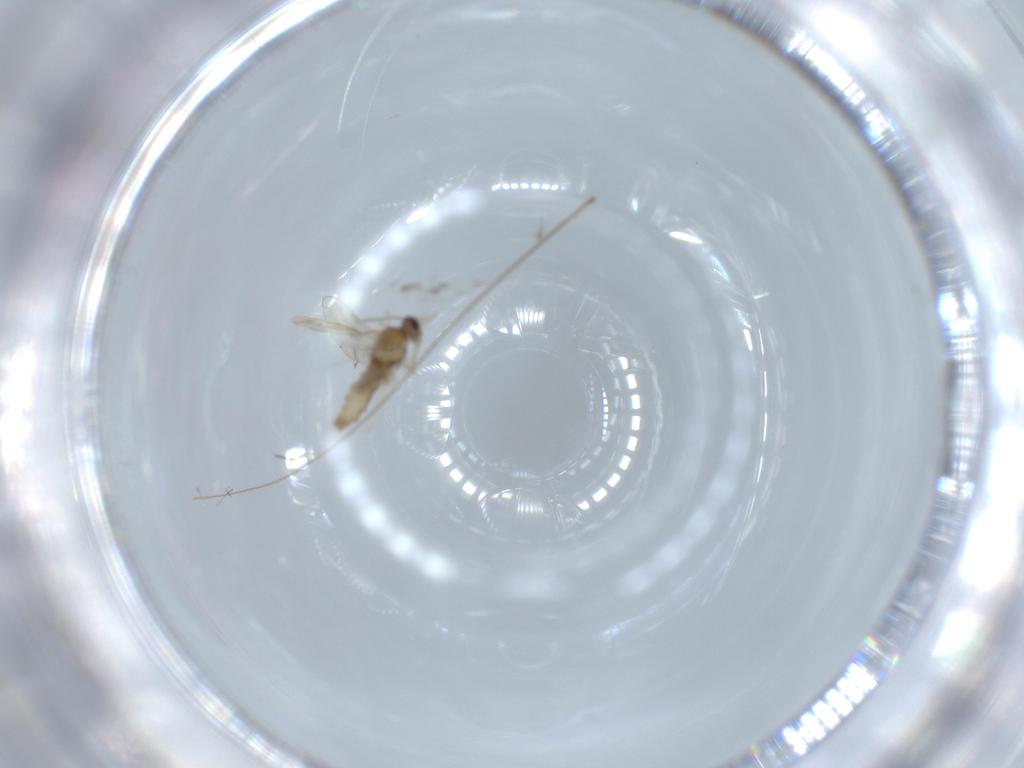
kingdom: Animalia
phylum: Arthropoda
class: Insecta
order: Diptera
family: Cecidomyiidae
